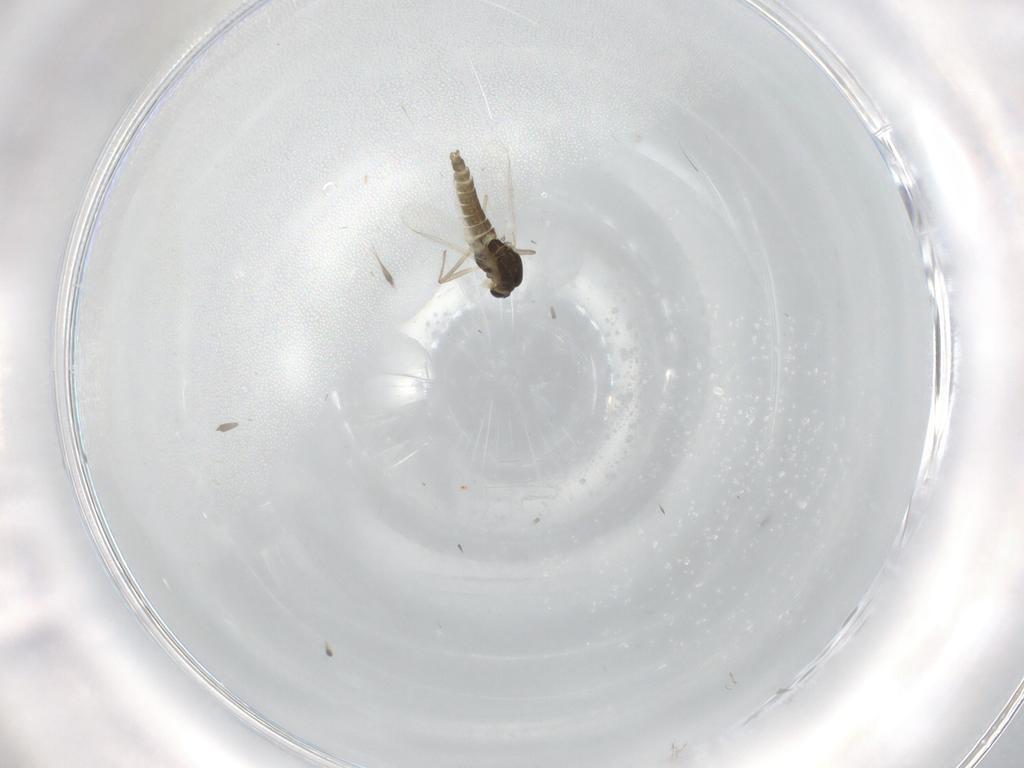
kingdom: Animalia
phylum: Arthropoda
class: Insecta
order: Diptera
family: Chironomidae
